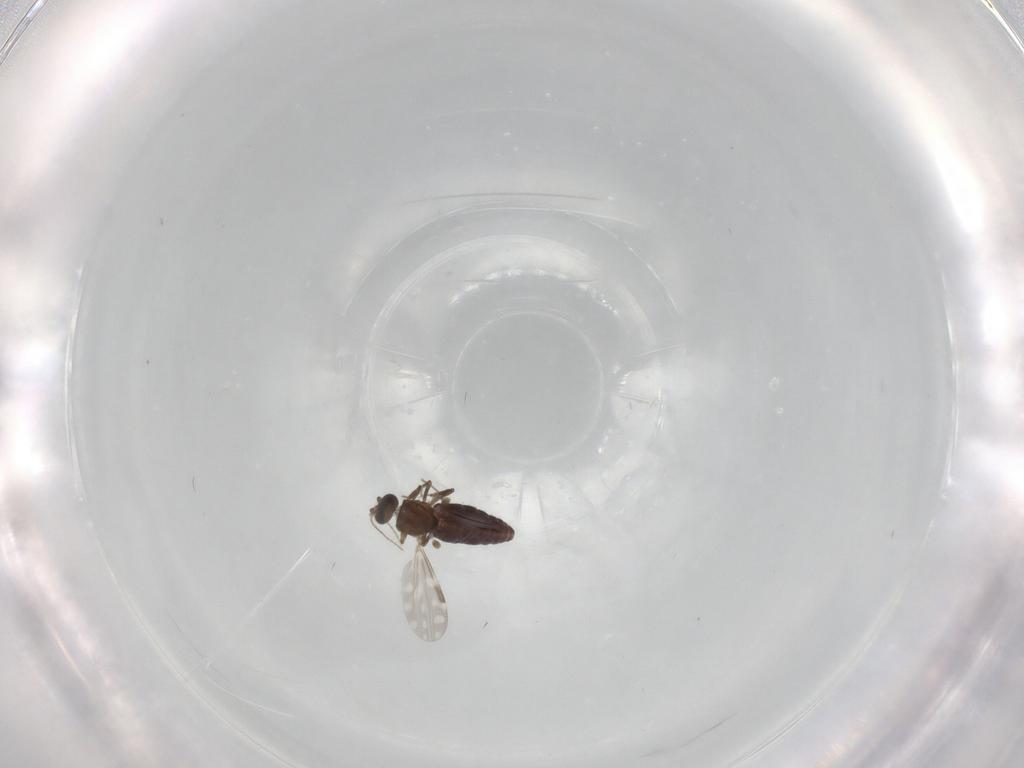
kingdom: Animalia
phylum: Arthropoda
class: Insecta
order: Diptera
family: Ceratopogonidae
